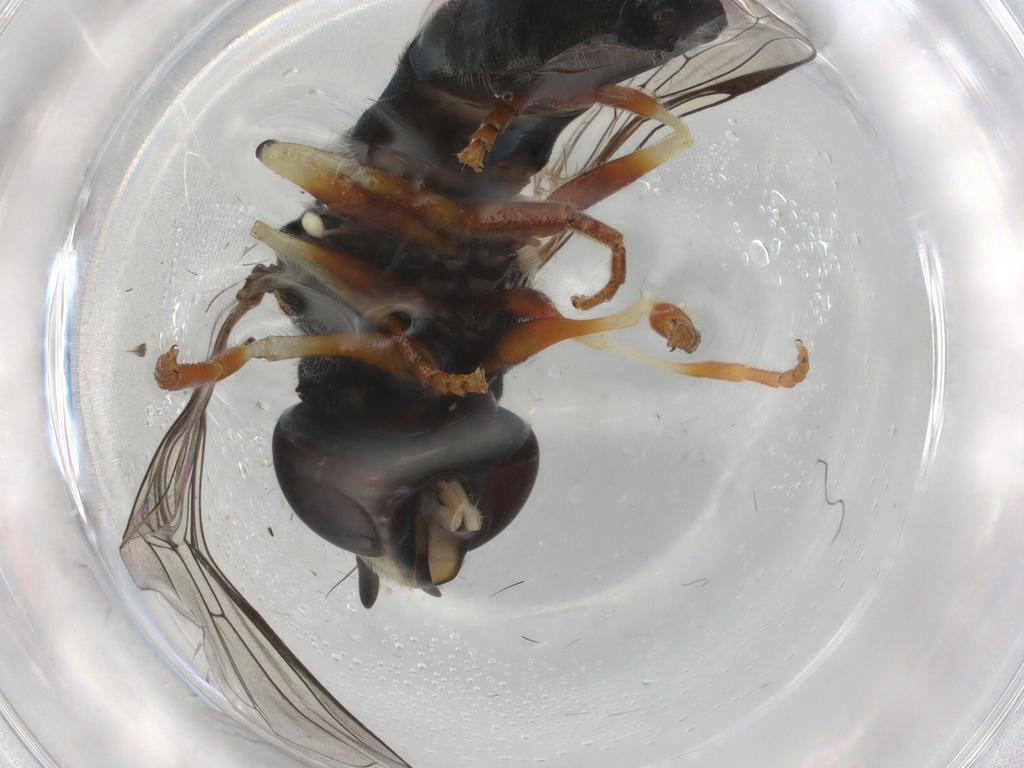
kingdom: Animalia
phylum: Arthropoda
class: Insecta
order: Diptera
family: Syrphidae
